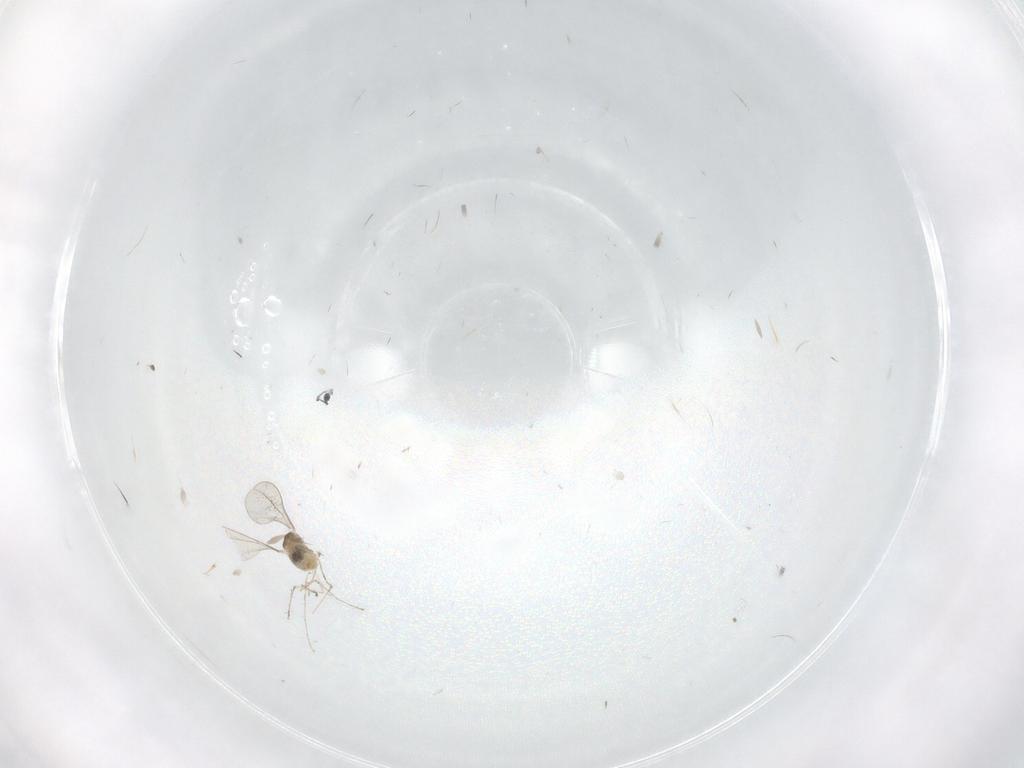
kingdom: Animalia
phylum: Arthropoda
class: Insecta
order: Diptera
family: Cecidomyiidae
